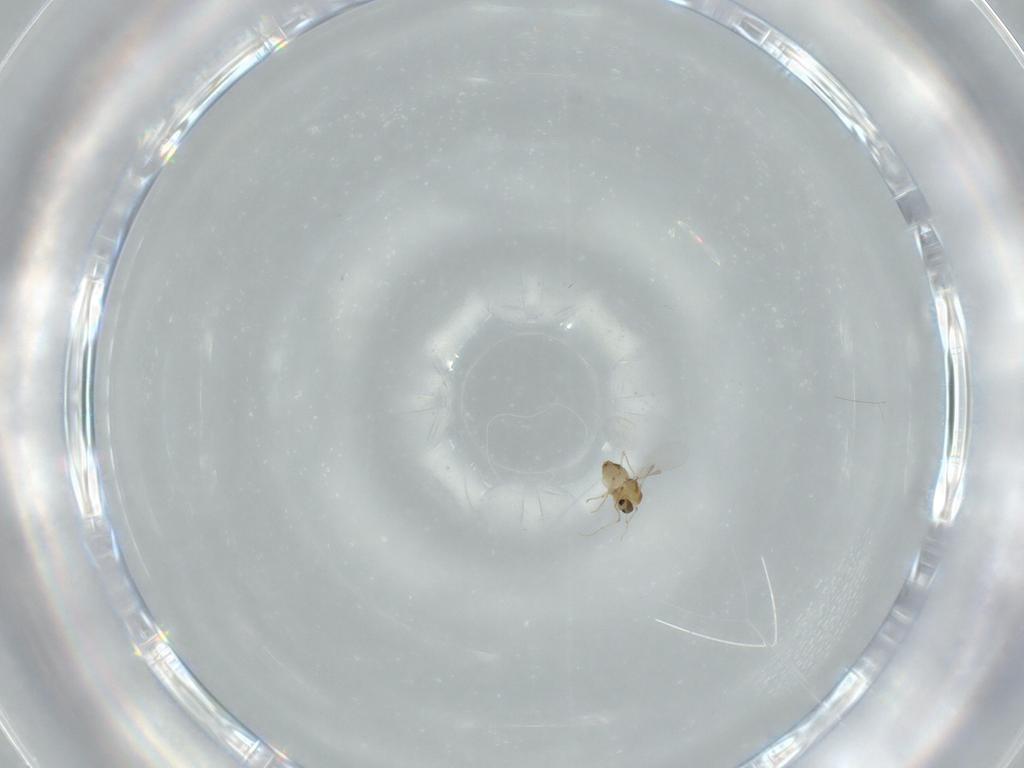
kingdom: Animalia
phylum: Arthropoda
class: Insecta
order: Diptera
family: Chironomidae
